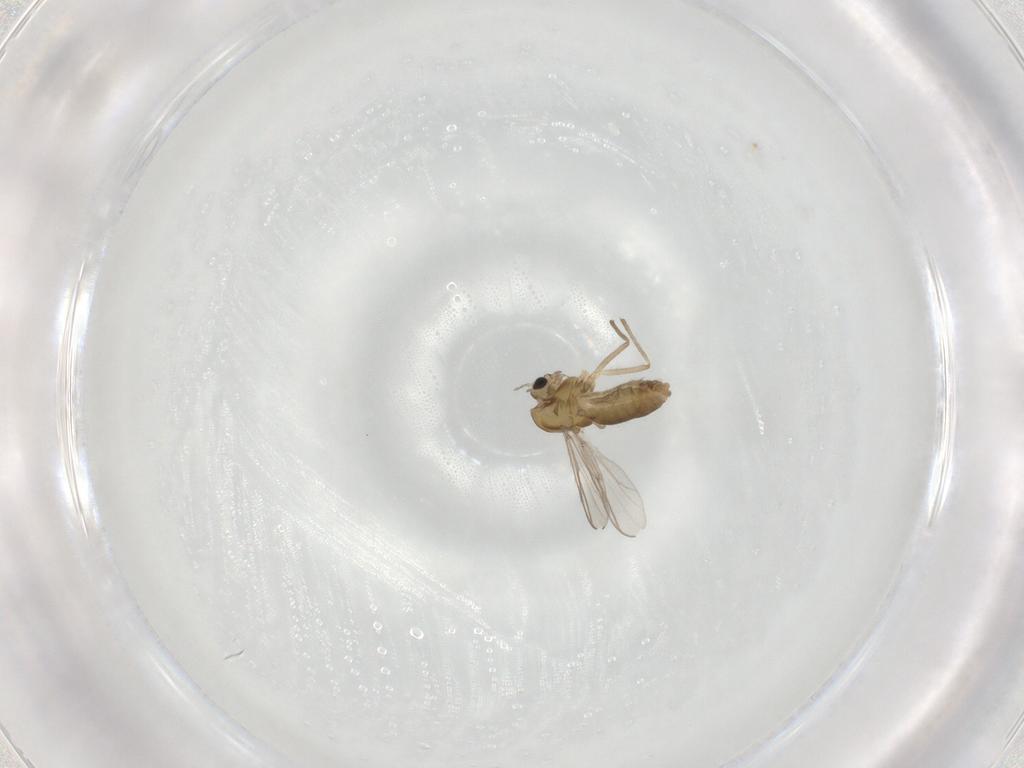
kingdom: Animalia
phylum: Arthropoda
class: Insecta
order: Diptera
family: Chironomidae
